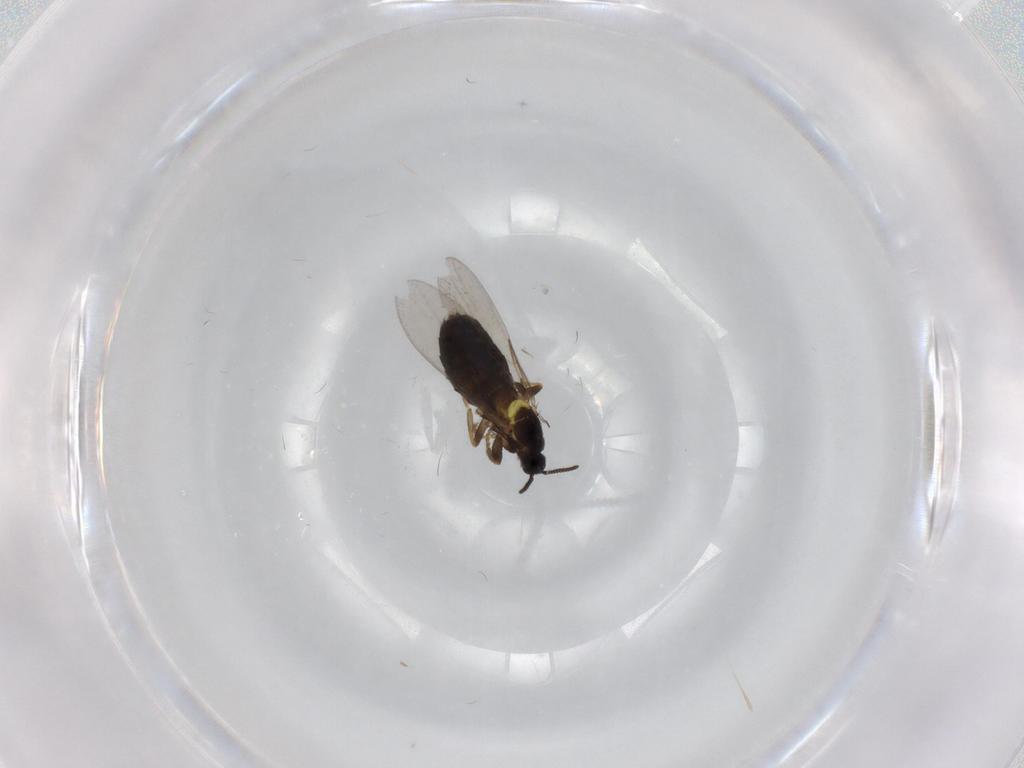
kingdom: Animalia
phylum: Arthropoda
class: Insecta
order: Diptera
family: Scatopsidae
